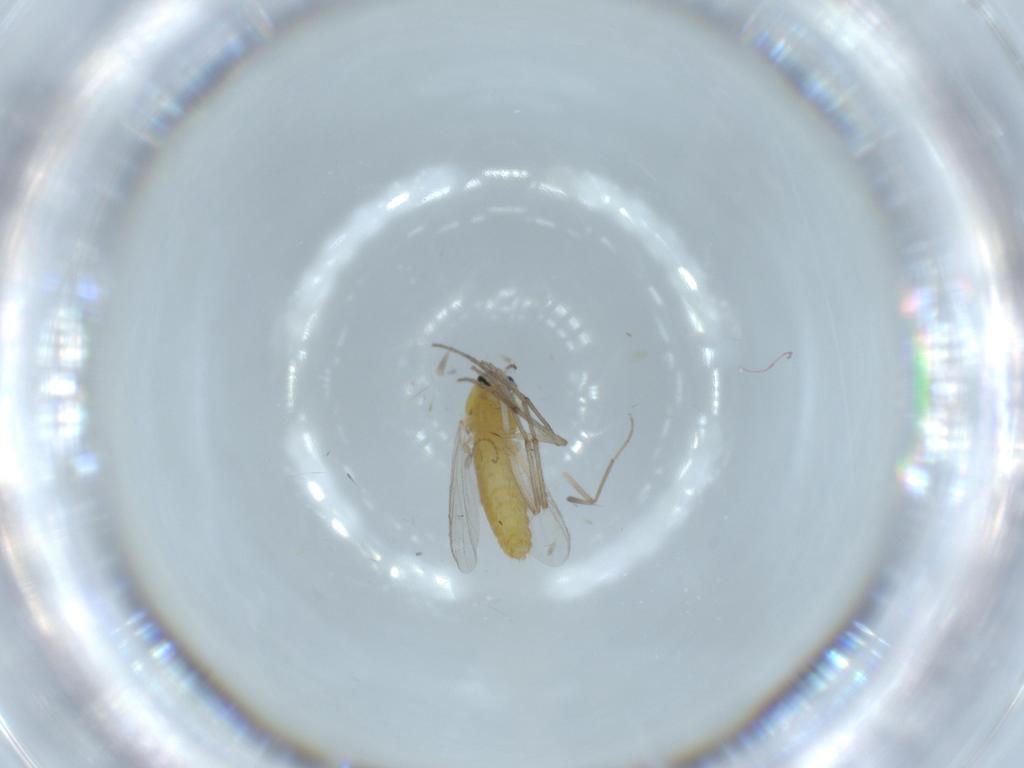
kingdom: Animalia
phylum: Arthropoda
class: Insecta
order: Diptera
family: Chironomidae
